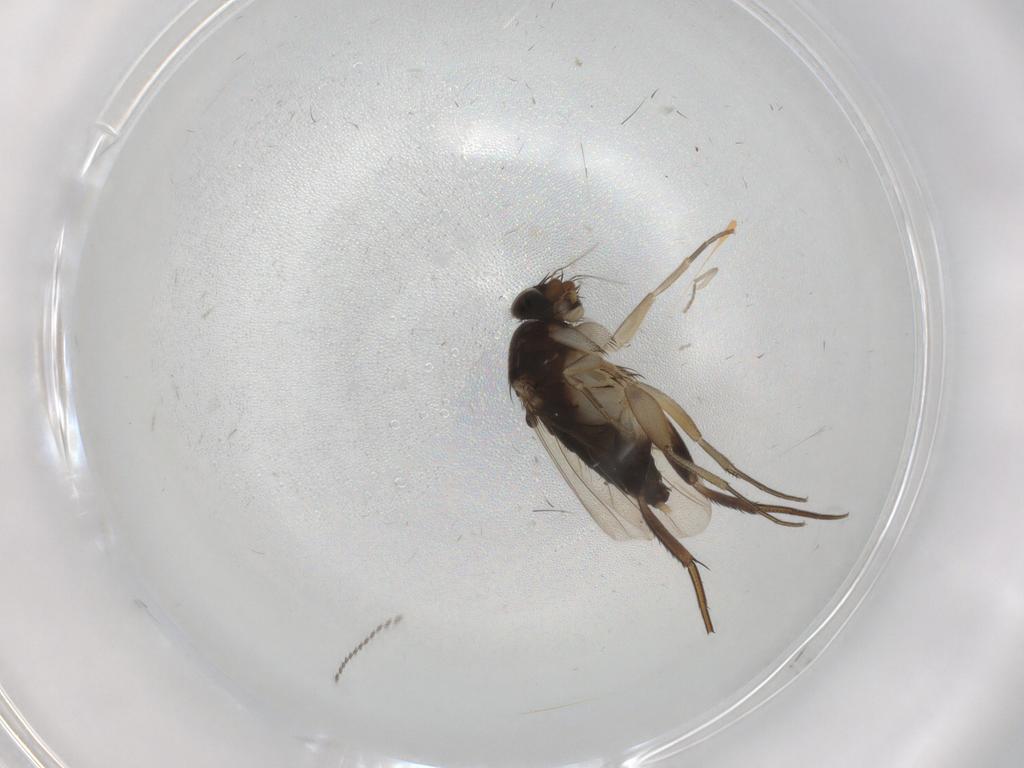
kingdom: Animalia
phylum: Arthropoda
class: Insecta
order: Diptera
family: Phoridae
